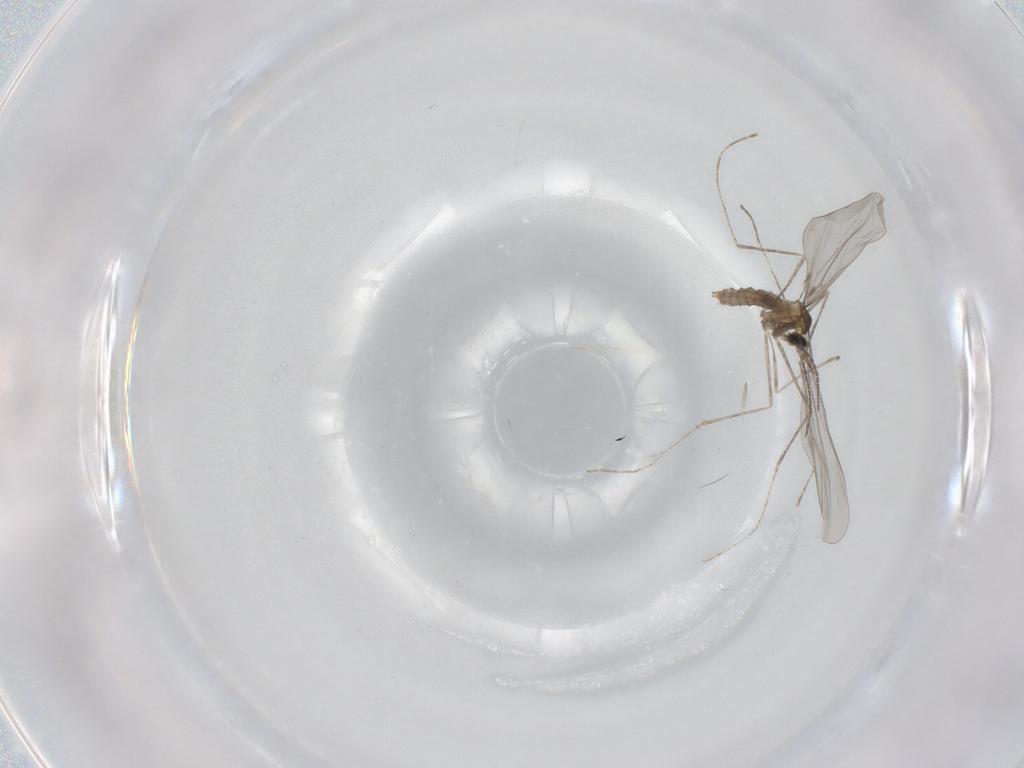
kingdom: Animalia
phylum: Arthropoda
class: Insecta
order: Diptera
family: Cecidomyiidae
